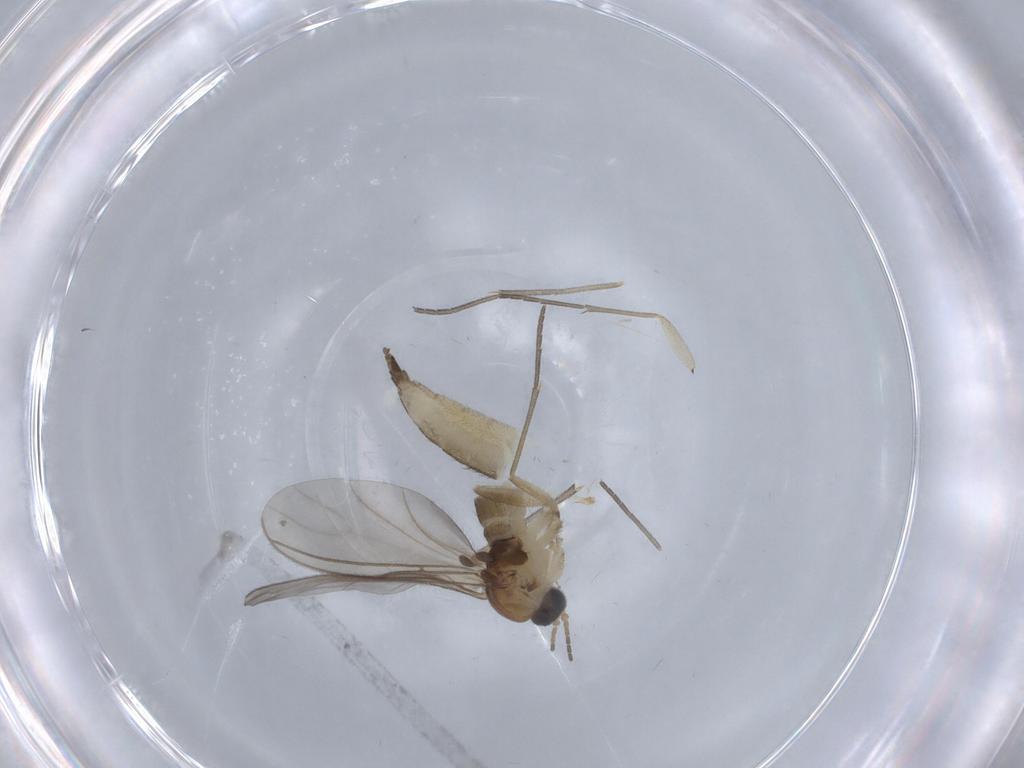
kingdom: Animalia
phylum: Arthropoda
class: Insecta
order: Diptera
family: Sciaridae
